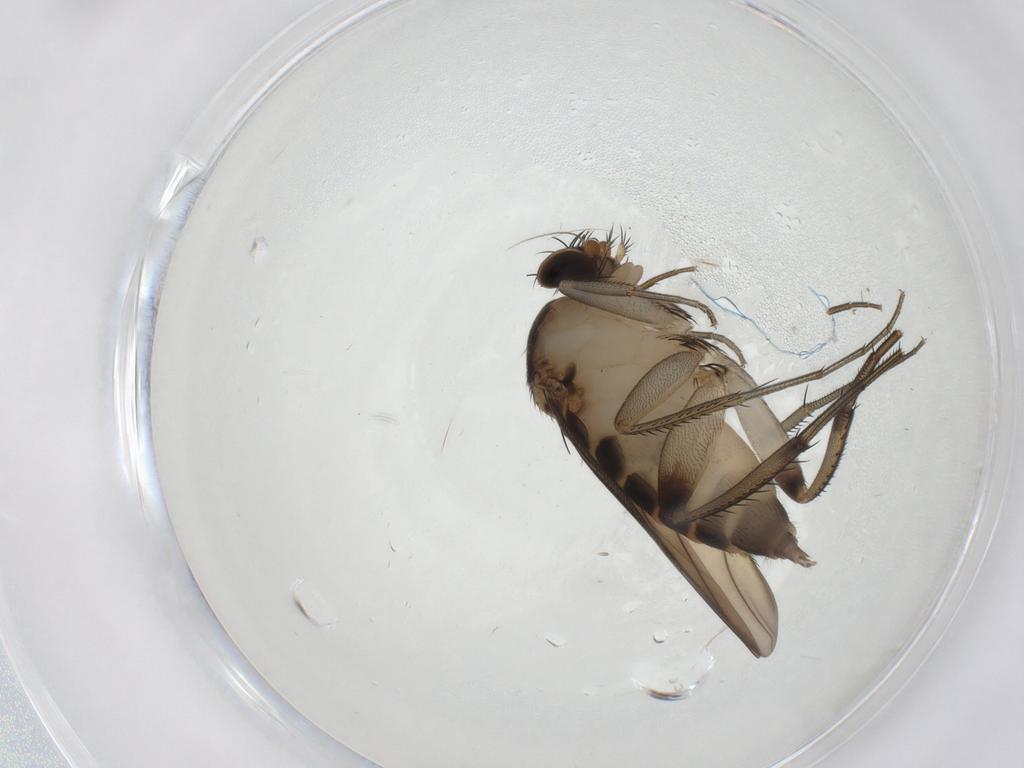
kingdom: Animalia
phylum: Arthropoda
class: Insecta
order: Diptera
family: Phoridae
